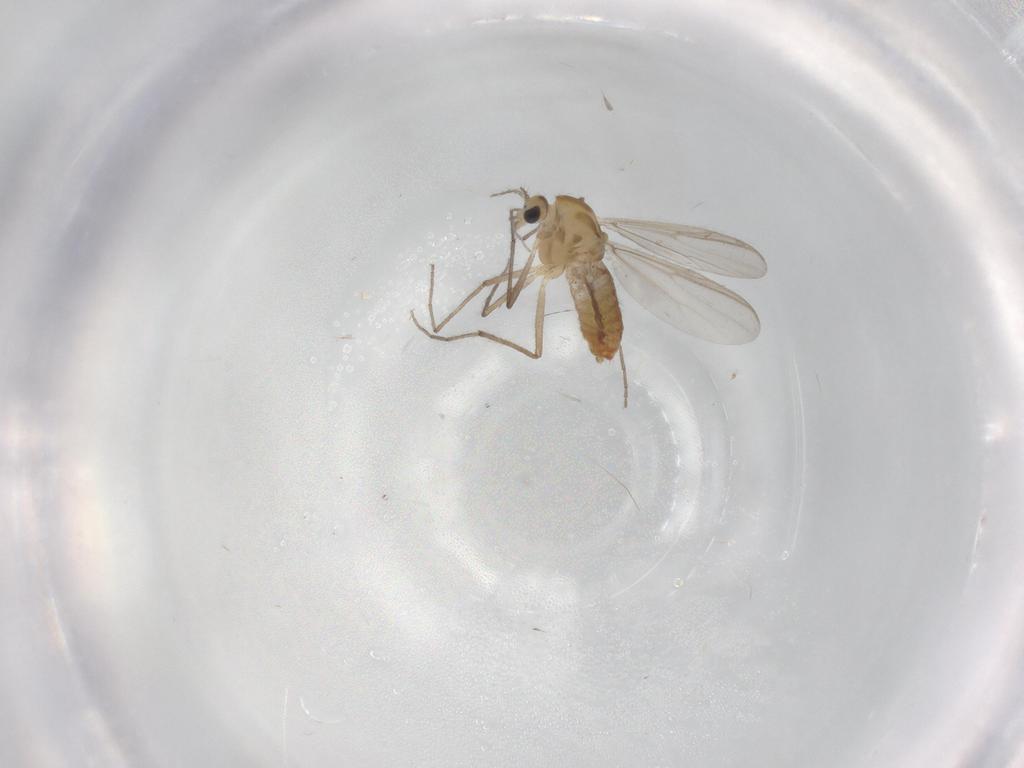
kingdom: Animalia
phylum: Arthropoda
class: Insecta
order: Diptera
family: Chironomidae
